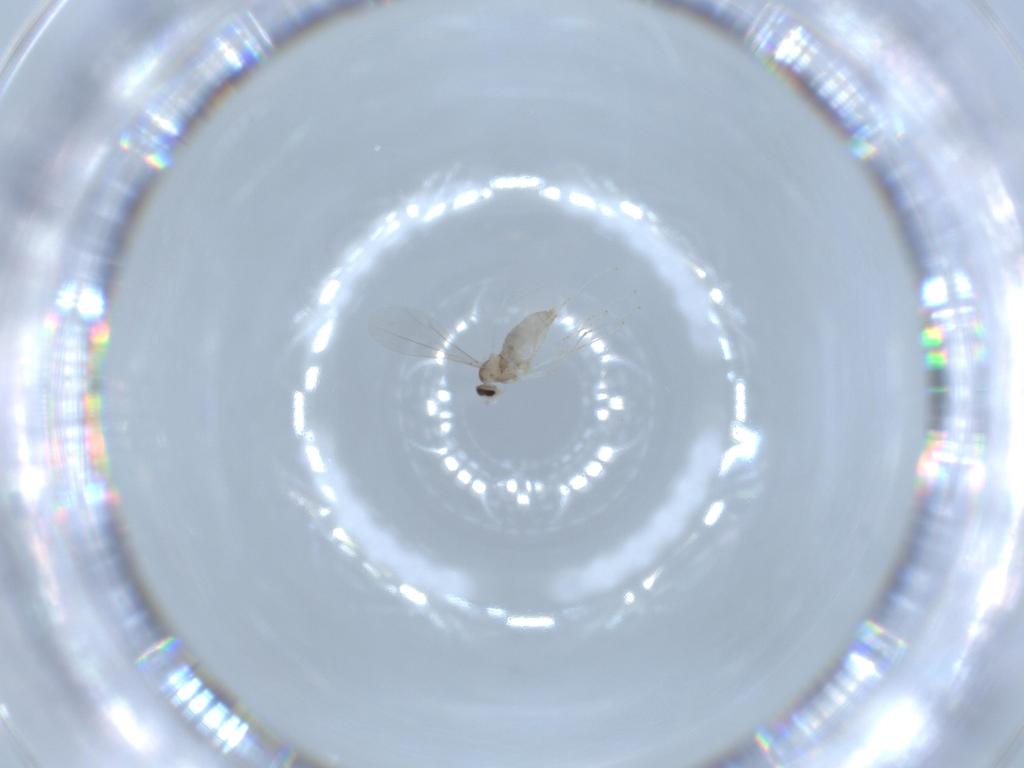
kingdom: Animalia
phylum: Arthropoda
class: Insecta
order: Diptera
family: Cecidomyiidae
